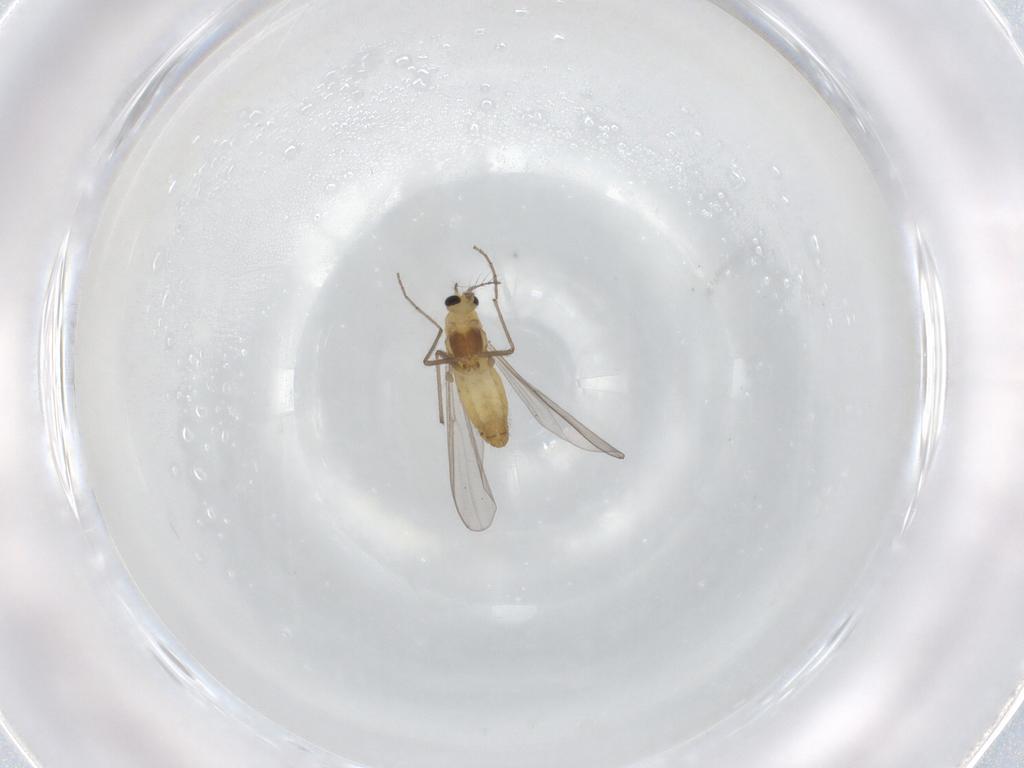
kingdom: Animalia
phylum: Arthropoda
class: Insecta
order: Diptera
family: Chironomidae
